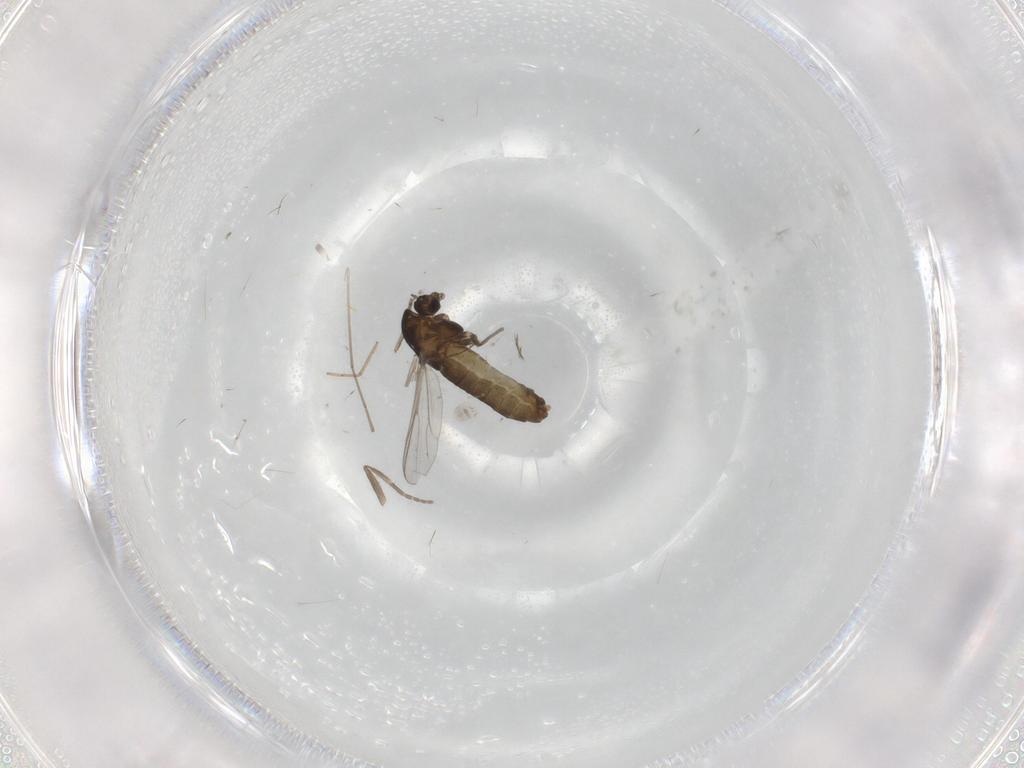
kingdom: Animalia
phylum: Arthropoda
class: Insecta
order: Diptera
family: Chironomidae
